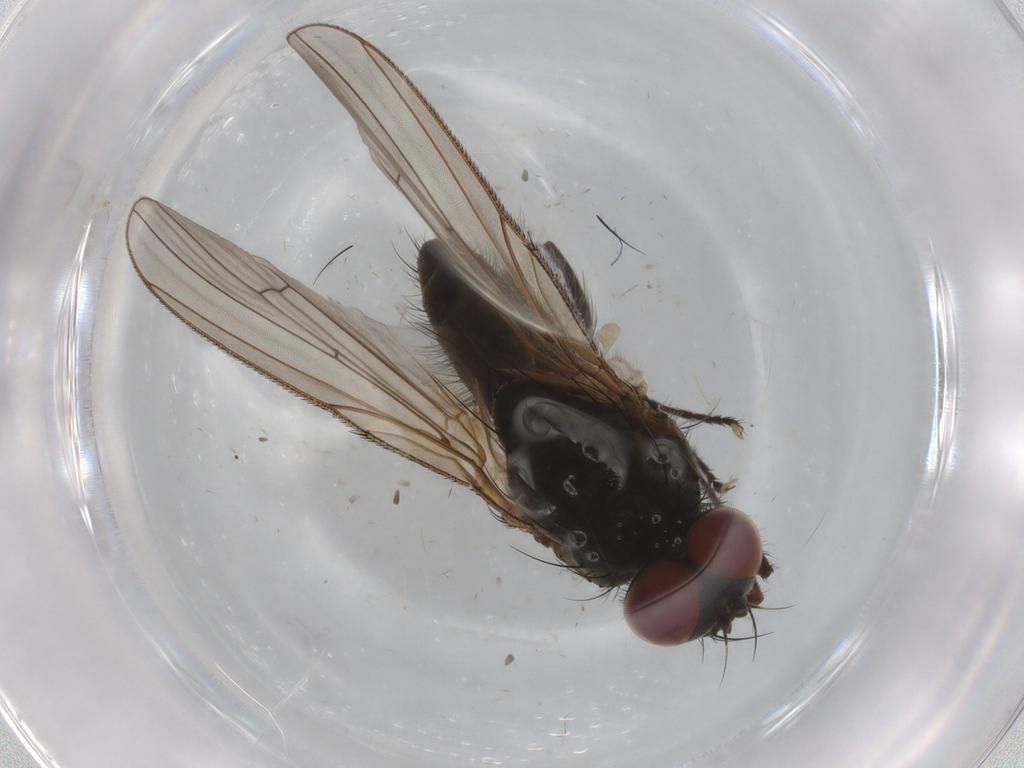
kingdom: Animalia
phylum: Arthropoda
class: Insecta
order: Diptera
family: Anthomyiidae
